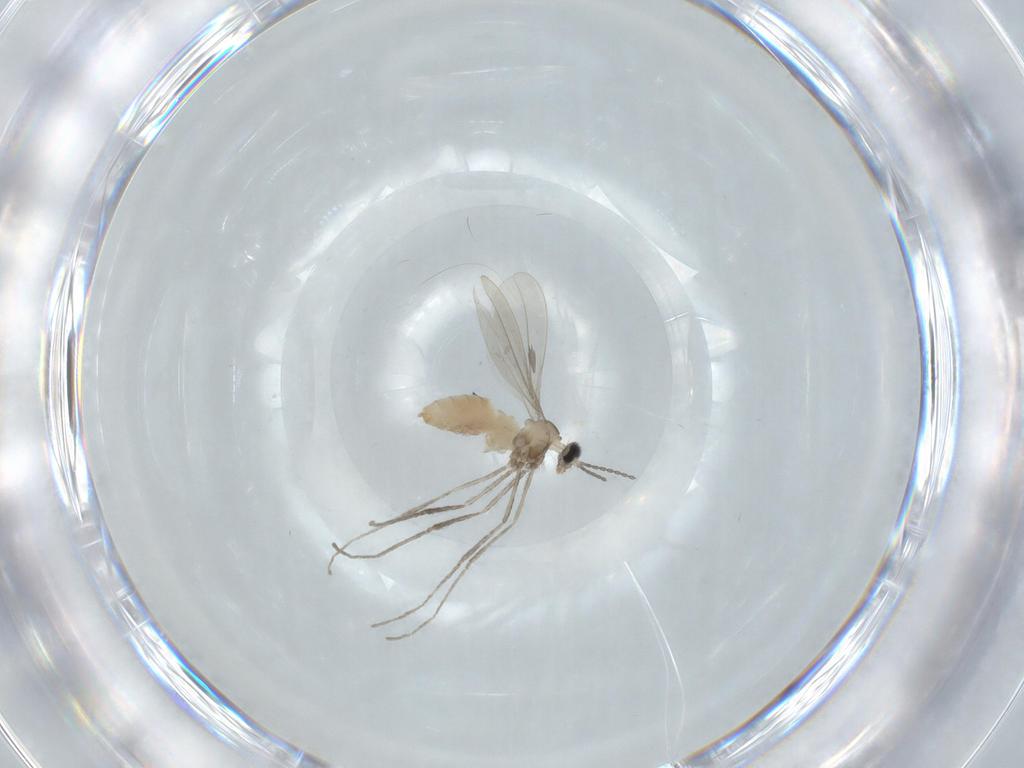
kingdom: Animalia
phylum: Arthropoda
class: Insecta
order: Diptera
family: Cecidomyiidae
